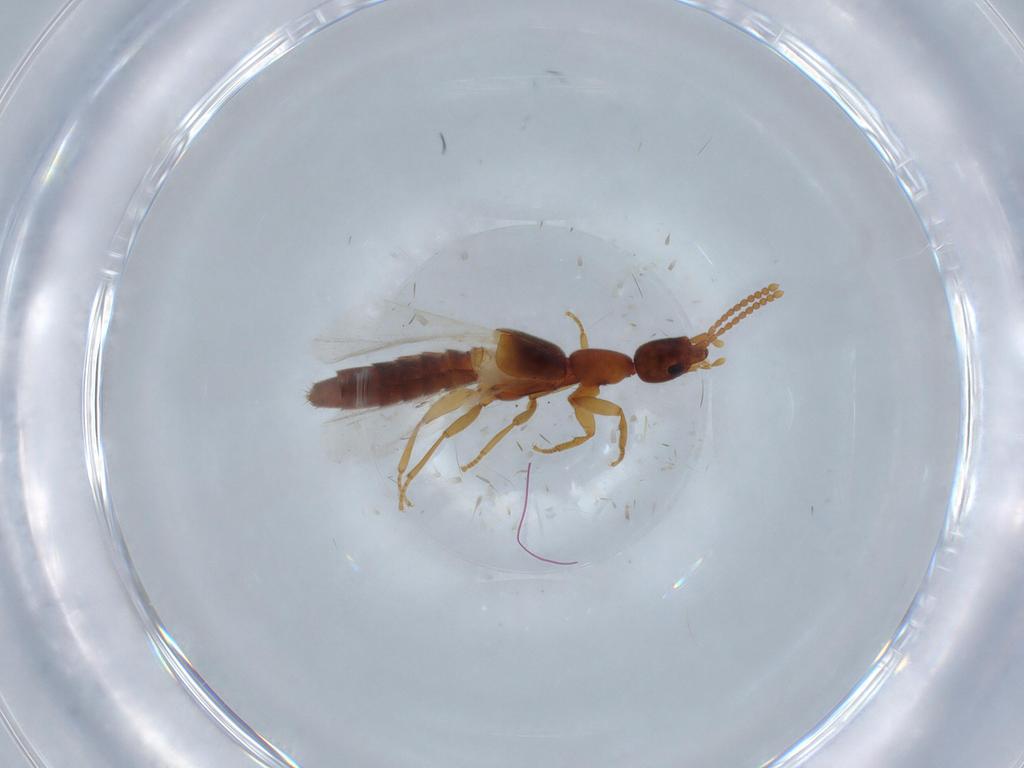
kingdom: Animalia
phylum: Arthropoda
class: Insecta
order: Coleoptera
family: Staphylinidae
